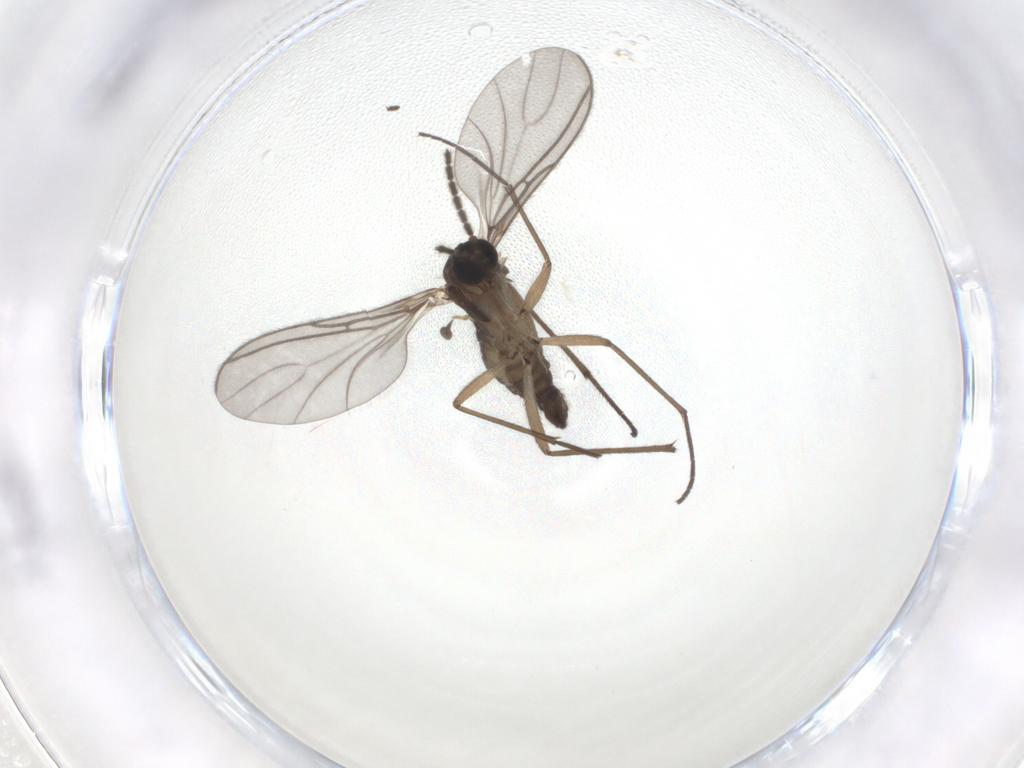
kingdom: Animalia
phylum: Arthropoda
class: Insecta
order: Diptera
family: Sciaridae
